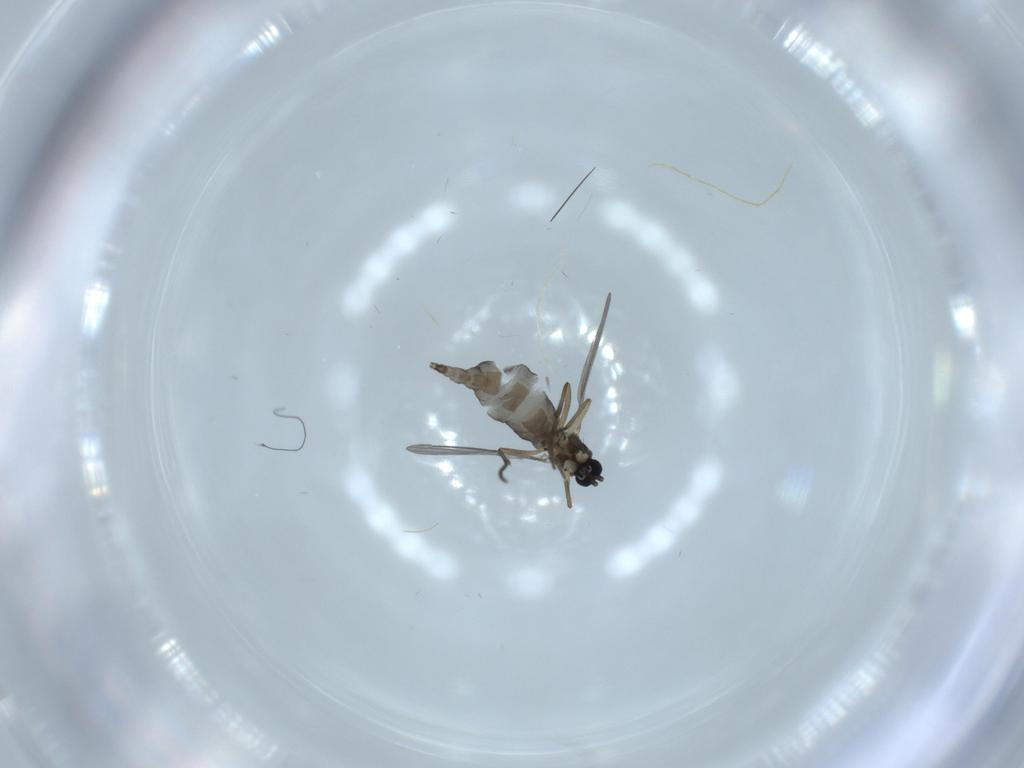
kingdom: Animalia
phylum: Arthropoda
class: Insecta
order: Diptera
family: Sciaridae
